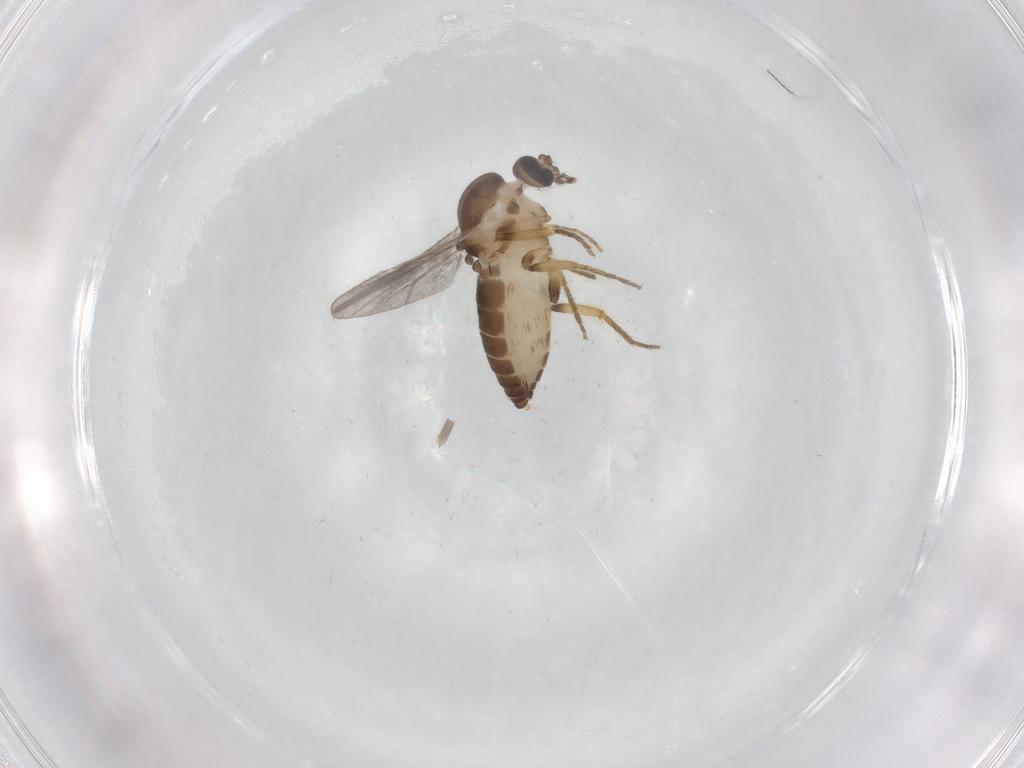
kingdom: Animalia
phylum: Arthropoda
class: Insecta
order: Diptera
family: Ceratopogonidae
